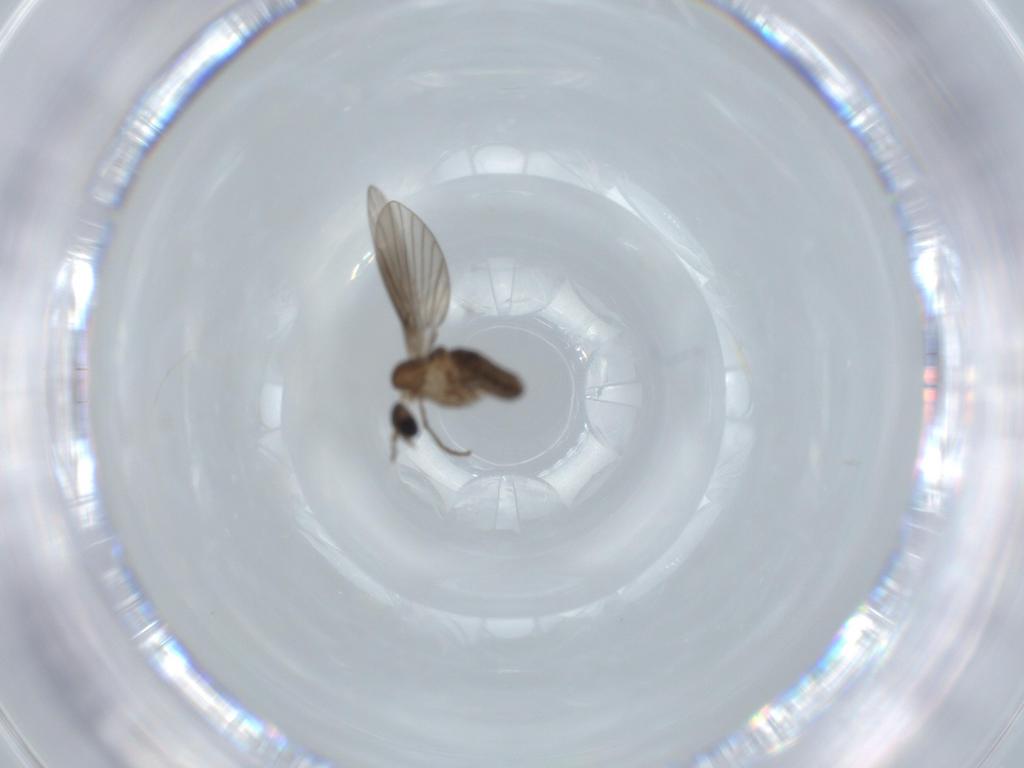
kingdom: Animalia
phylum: Arthropoda
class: Insecta
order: Diptera
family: Psychodidae
